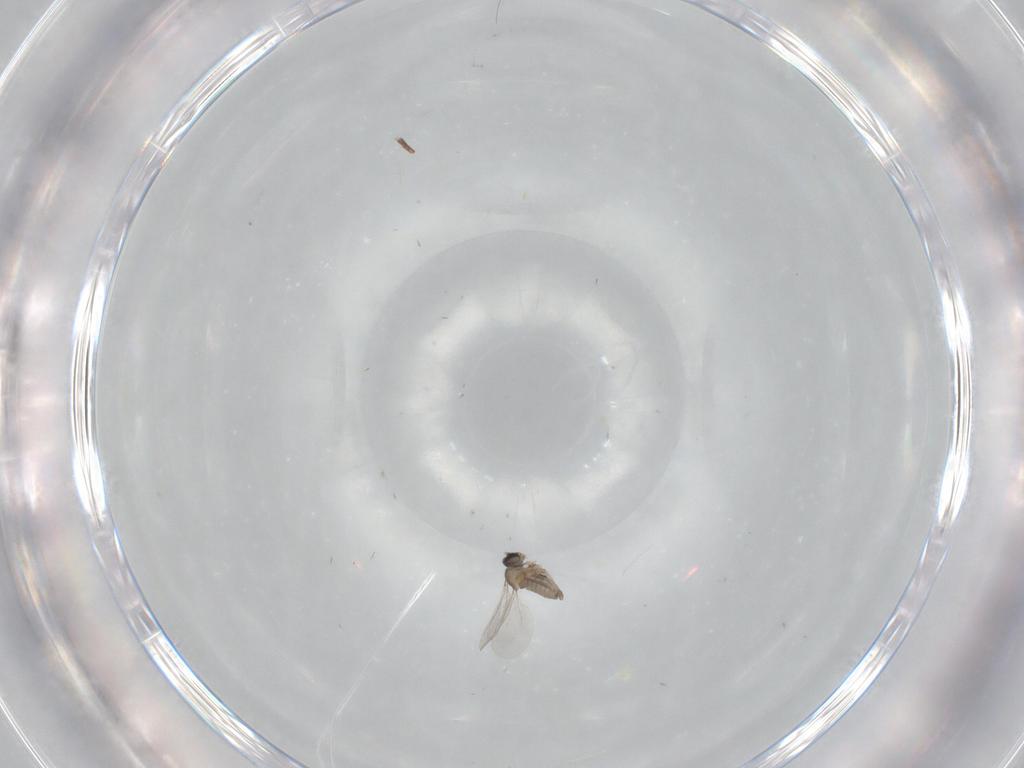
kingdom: Animalia
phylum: Arthropoda
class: Insecta
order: Diptera
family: Cecidomyiidae
